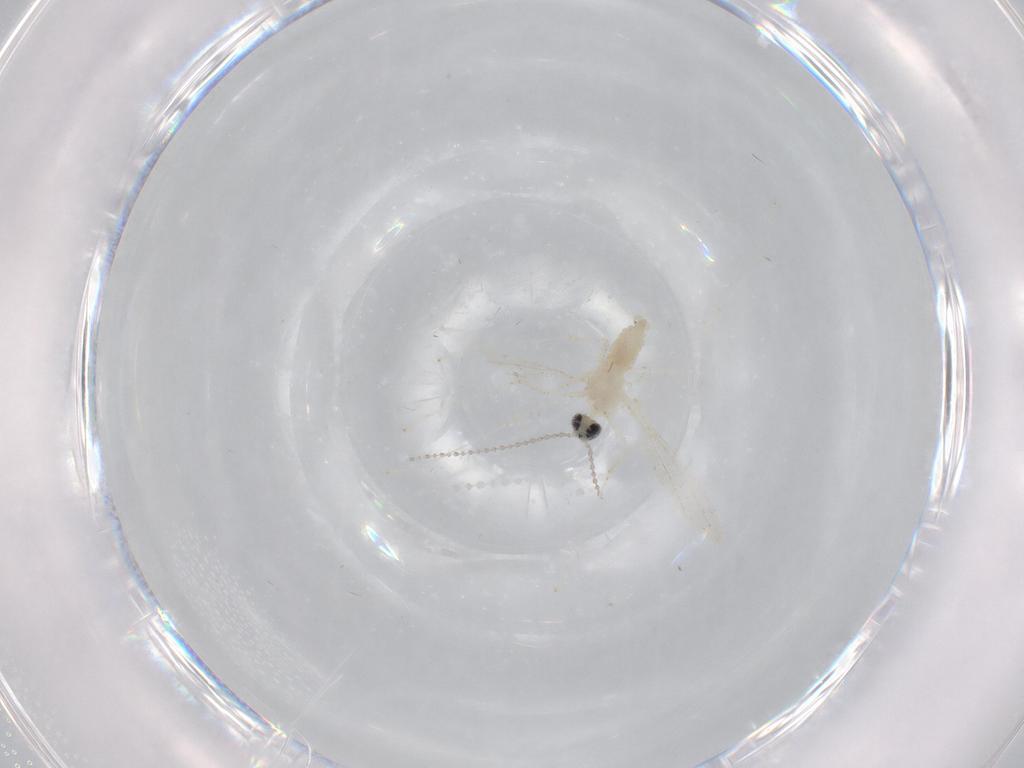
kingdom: Animalia
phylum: Arthropoda
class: Insecta
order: Diptera
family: Cecidomyiidae
